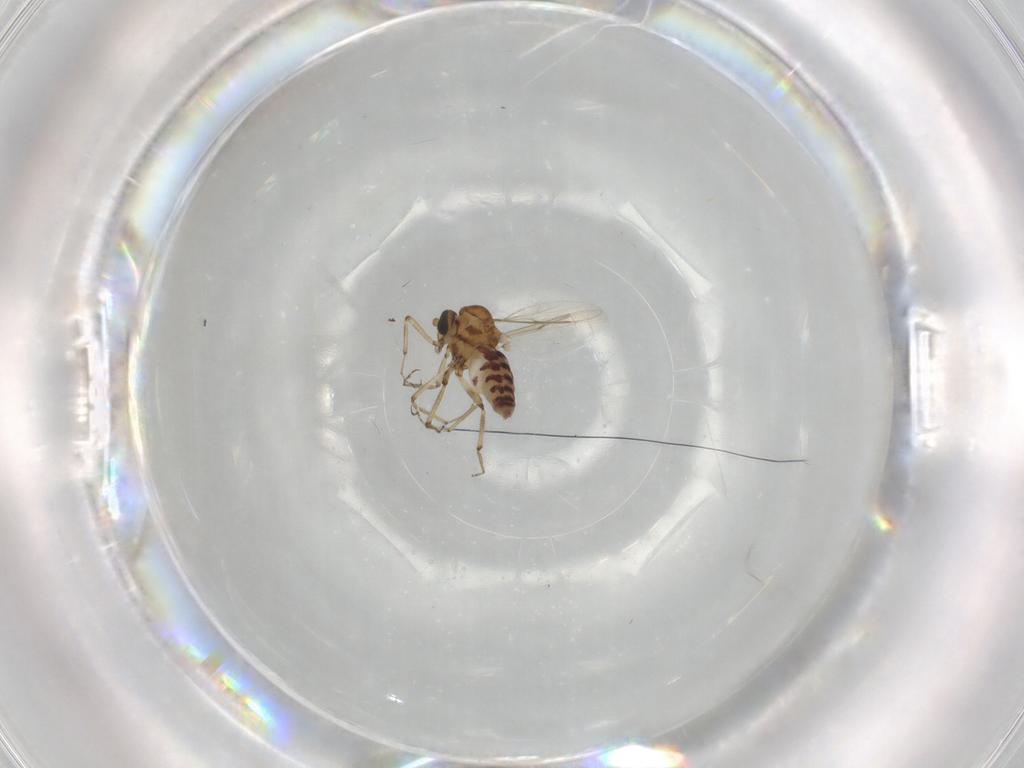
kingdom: Animalia
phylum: Arthropoda
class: Insecta
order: Diptera
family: Ceratopogonidae
